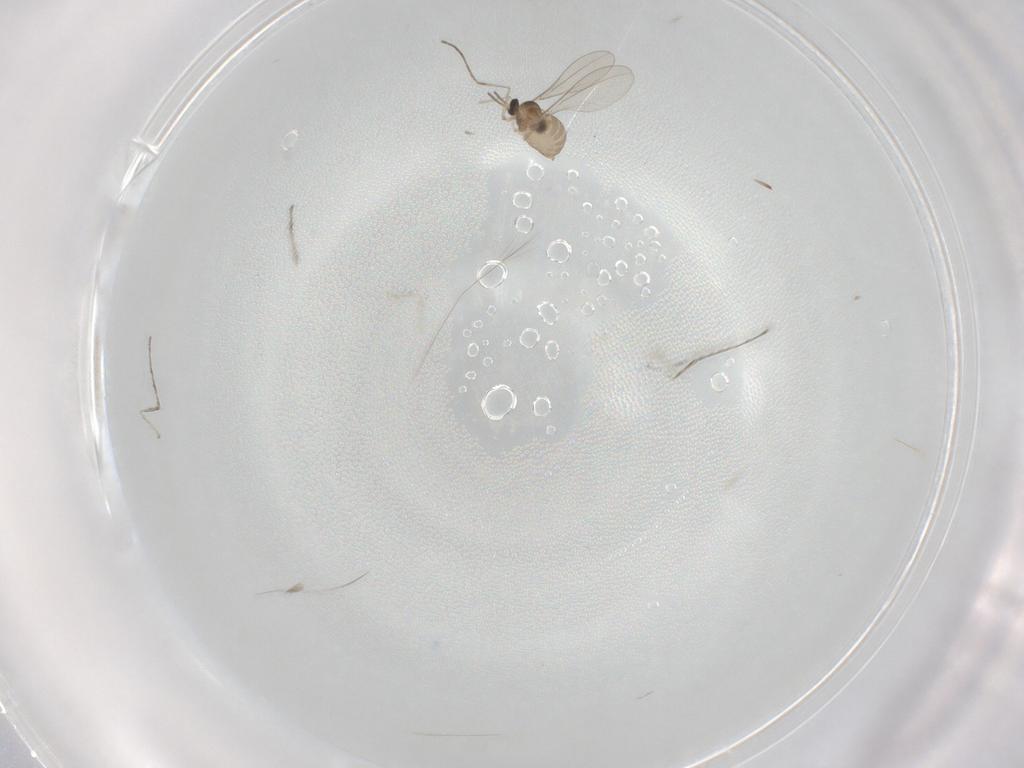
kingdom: Animalia
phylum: Arthropoda
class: Insecta
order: Diptera
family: Cecidomyiidae
